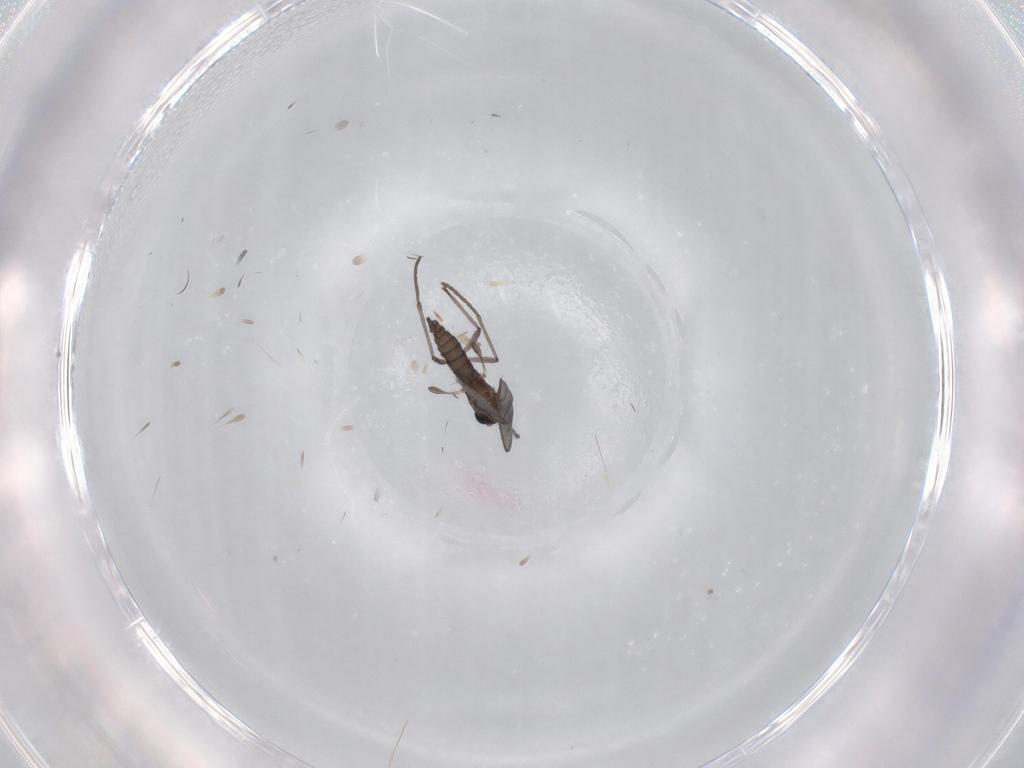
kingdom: Animalia
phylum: Arthropoda
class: Insecta
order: Diptera
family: Sciaridae
